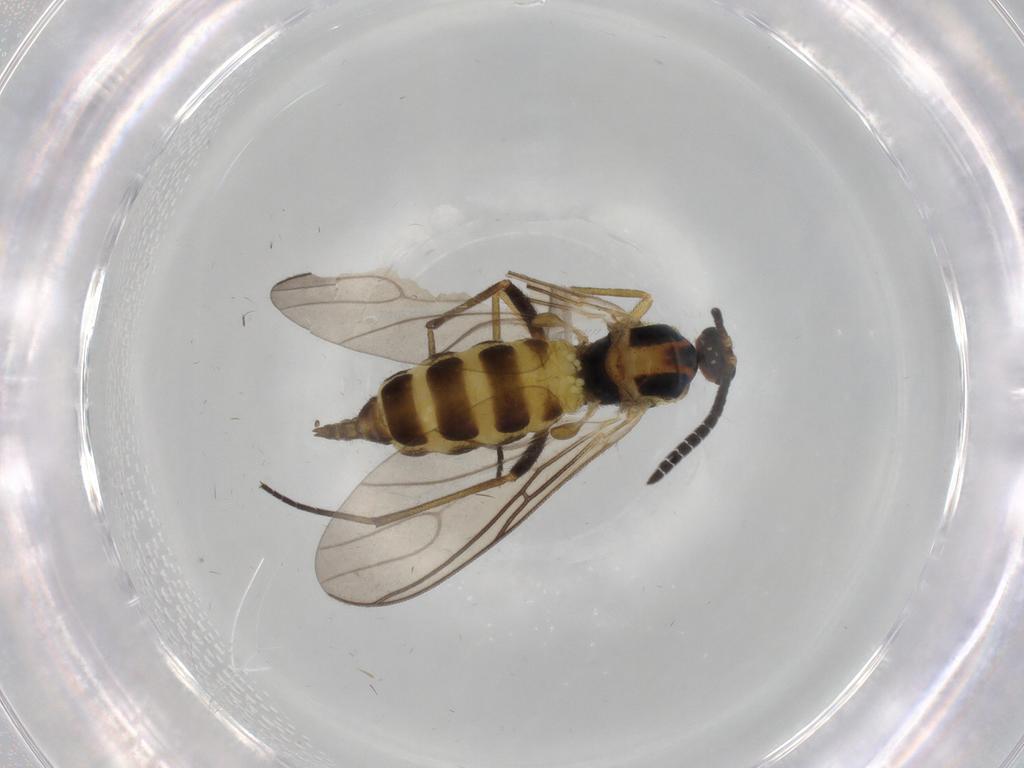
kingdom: Animalia
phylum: Arthropoda
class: Insecta
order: Diptera
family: Sciaridae
